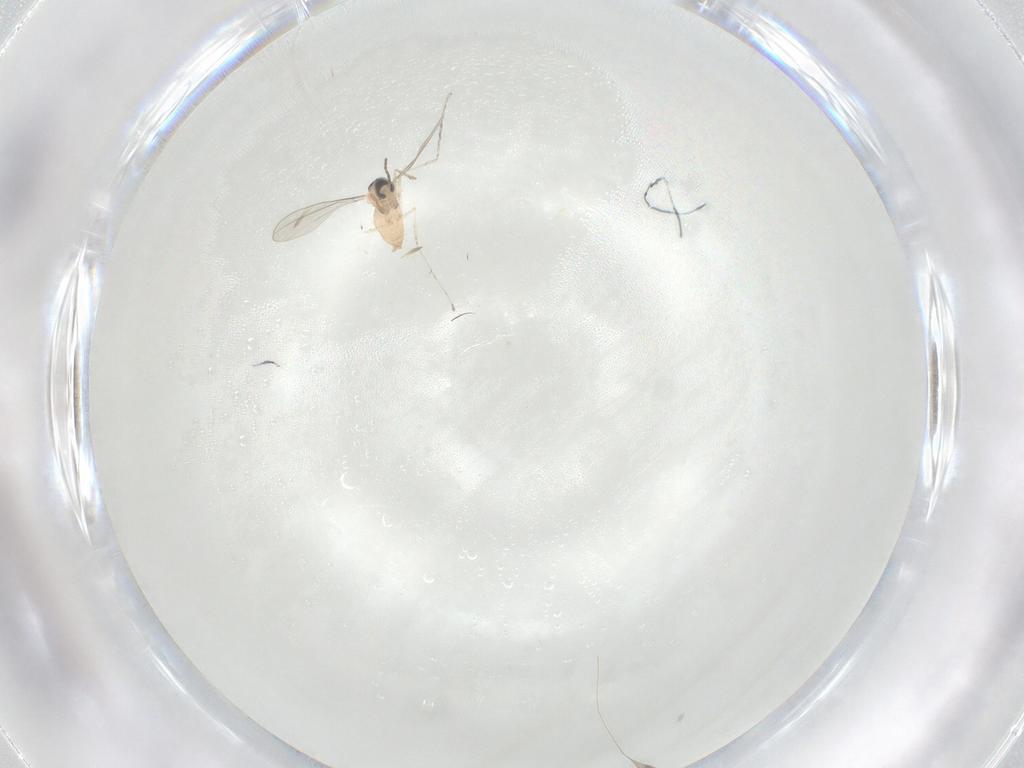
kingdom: Animalia
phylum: Arthropoda
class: Insecta
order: Diptera
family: Cecidomyiidae
